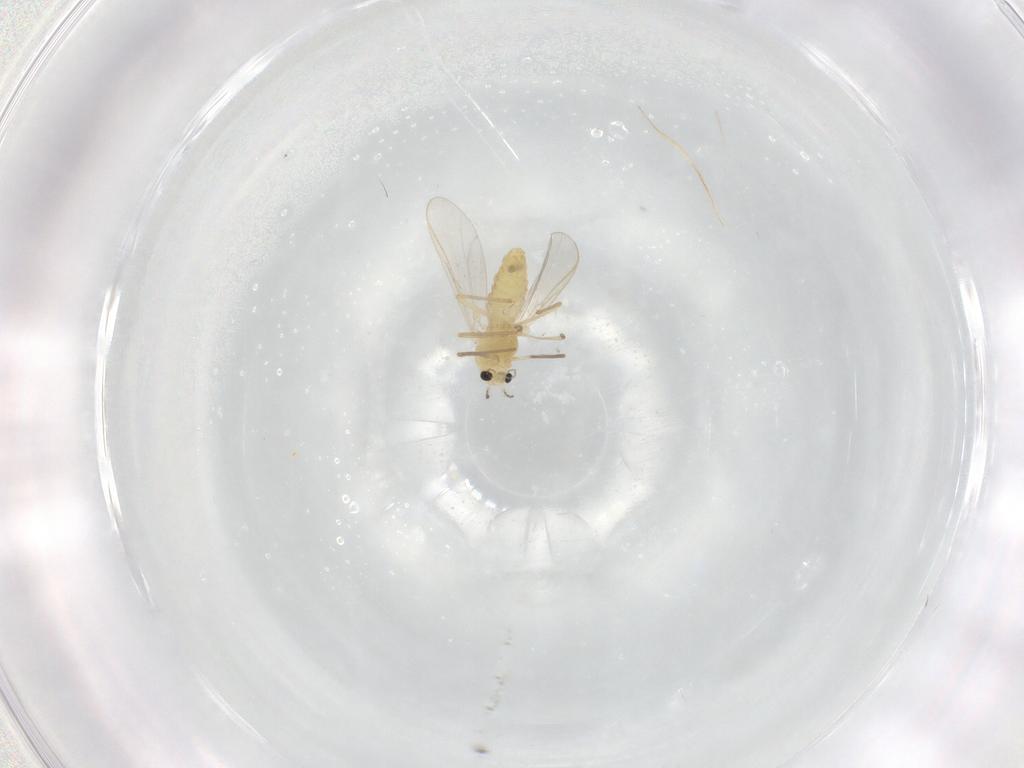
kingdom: Animalia
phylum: Arthropoda
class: Insecta
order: Diptera
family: Chironomidae
